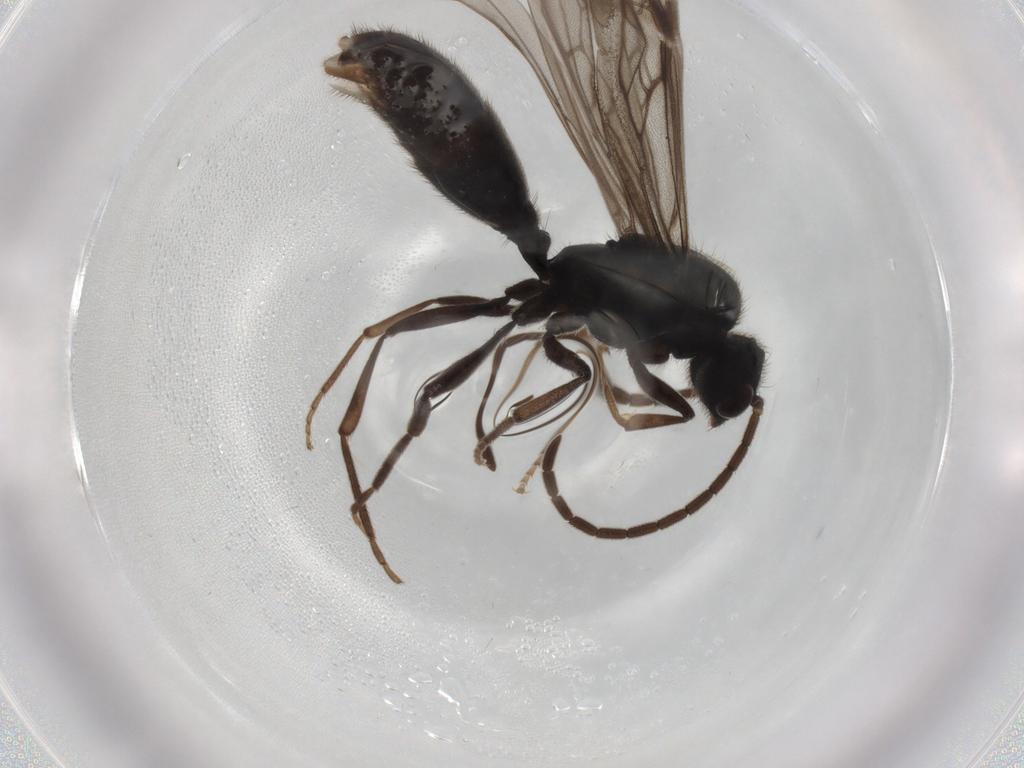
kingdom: Animalia
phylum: Arthropoda
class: Insecta
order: Hymenoptera
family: Formicidae
